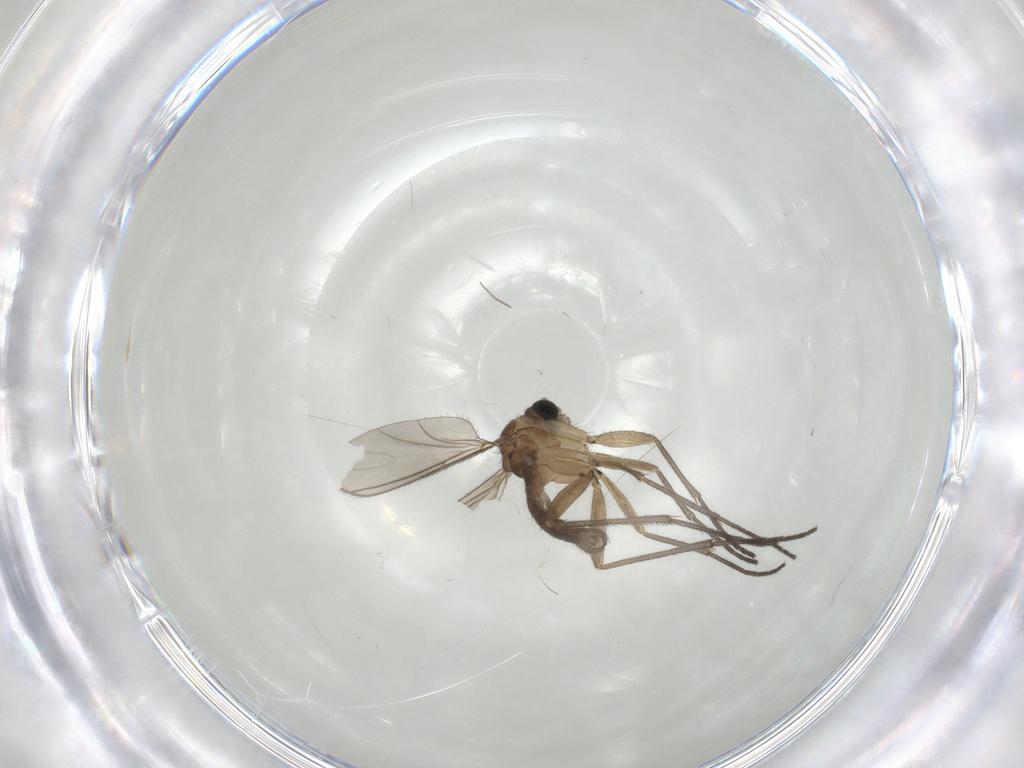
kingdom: Animalia
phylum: Arthropoda
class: Insecta
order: Diptera
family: Sciaridae
